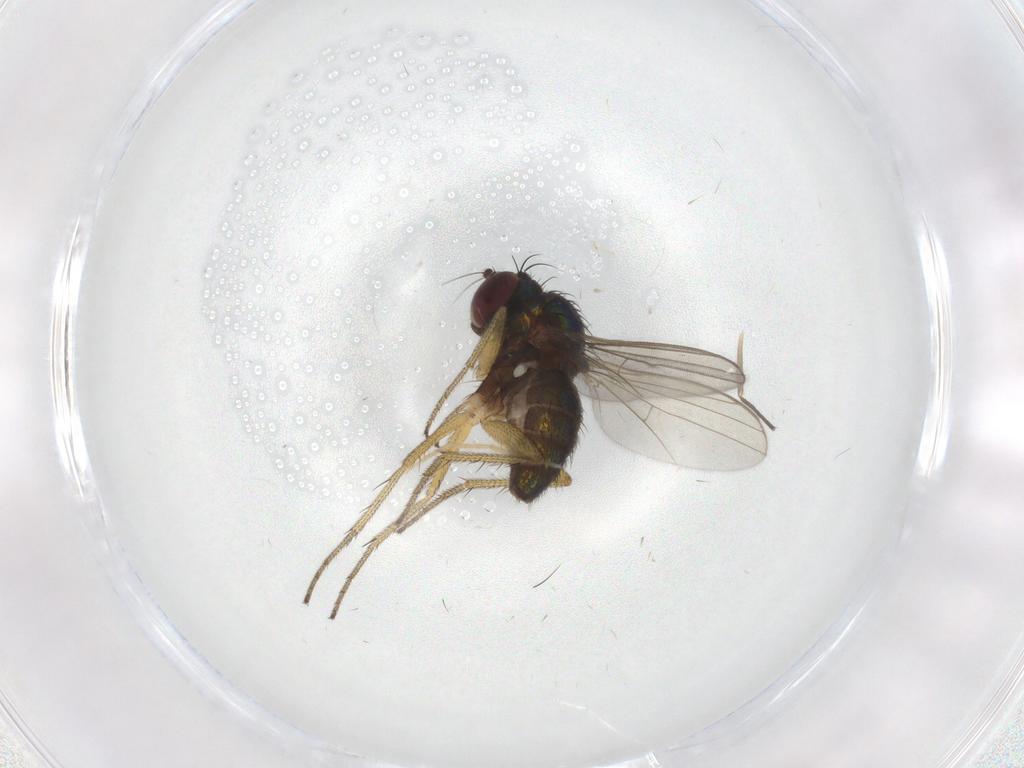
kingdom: Animalia
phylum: Arthropoda
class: Insecta
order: Diptera
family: Chironomidae
